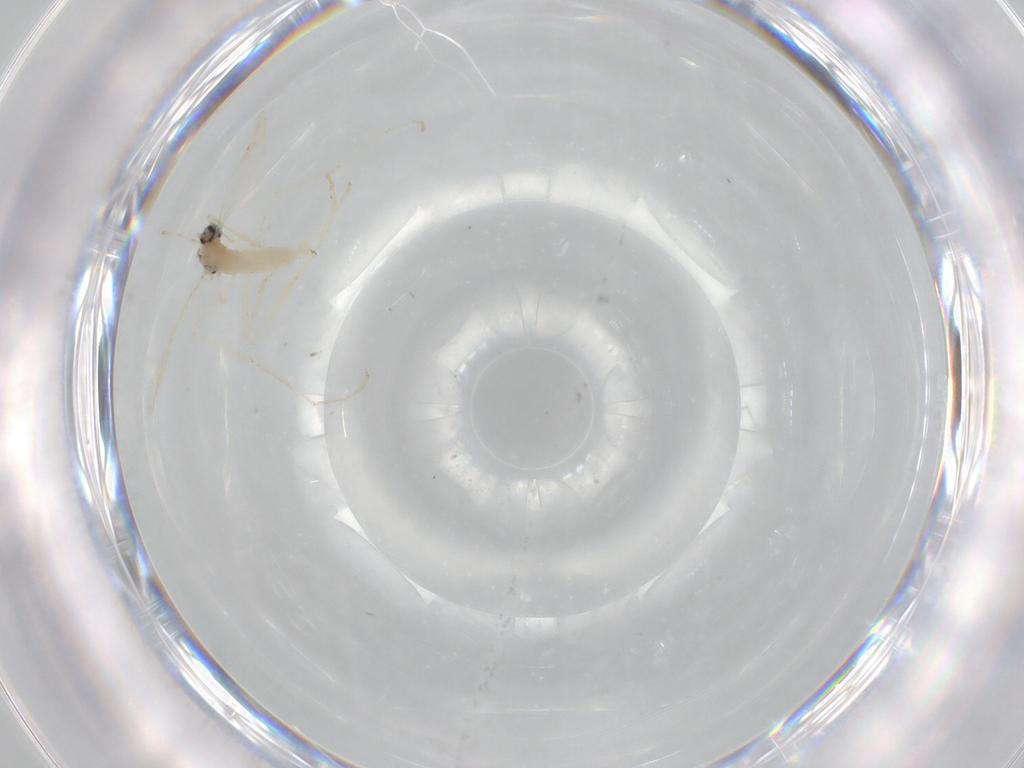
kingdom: Animalia
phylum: Arthropoda
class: Insecta
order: Diptera
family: Cecidomyiidae
